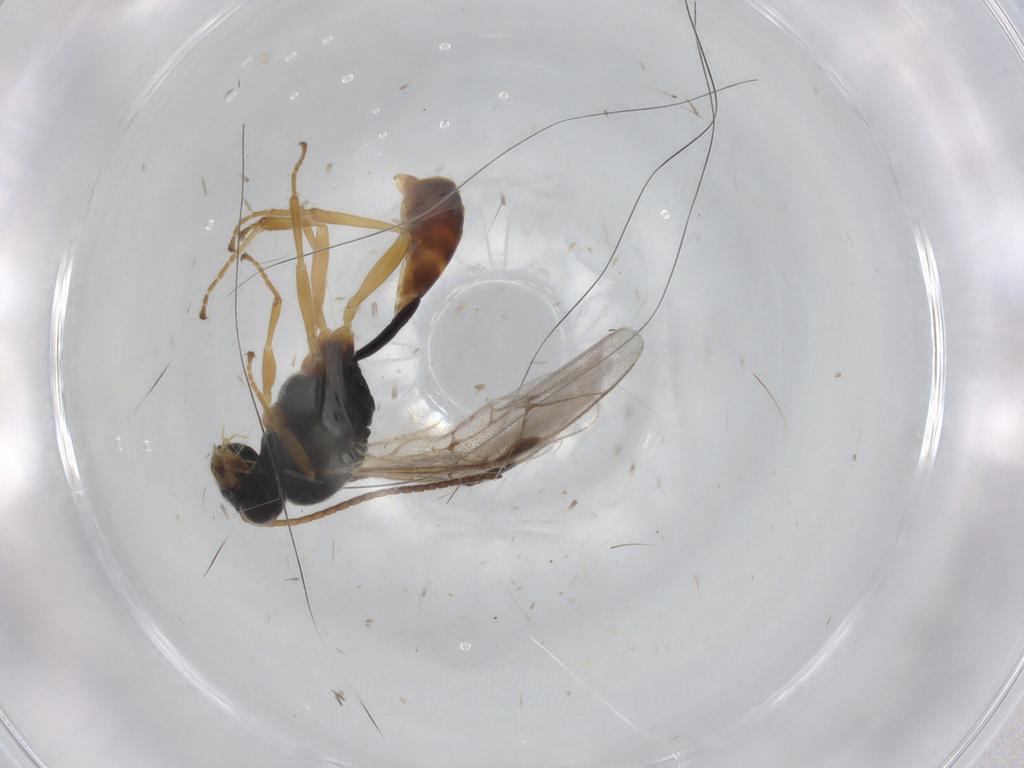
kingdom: Animalia
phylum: Arthropoda
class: Insecta
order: Hymenoptera
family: Ichneumonidae
